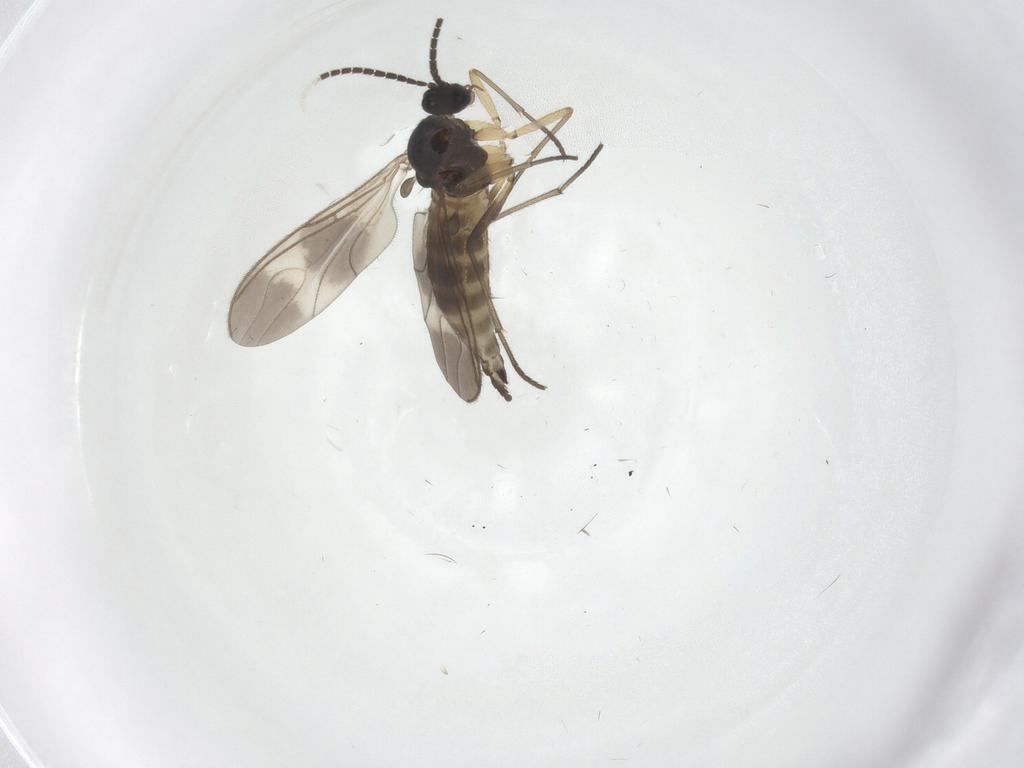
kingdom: Animalia
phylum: Arthropoda
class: Insecta
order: Diptera
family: Sciaridae
